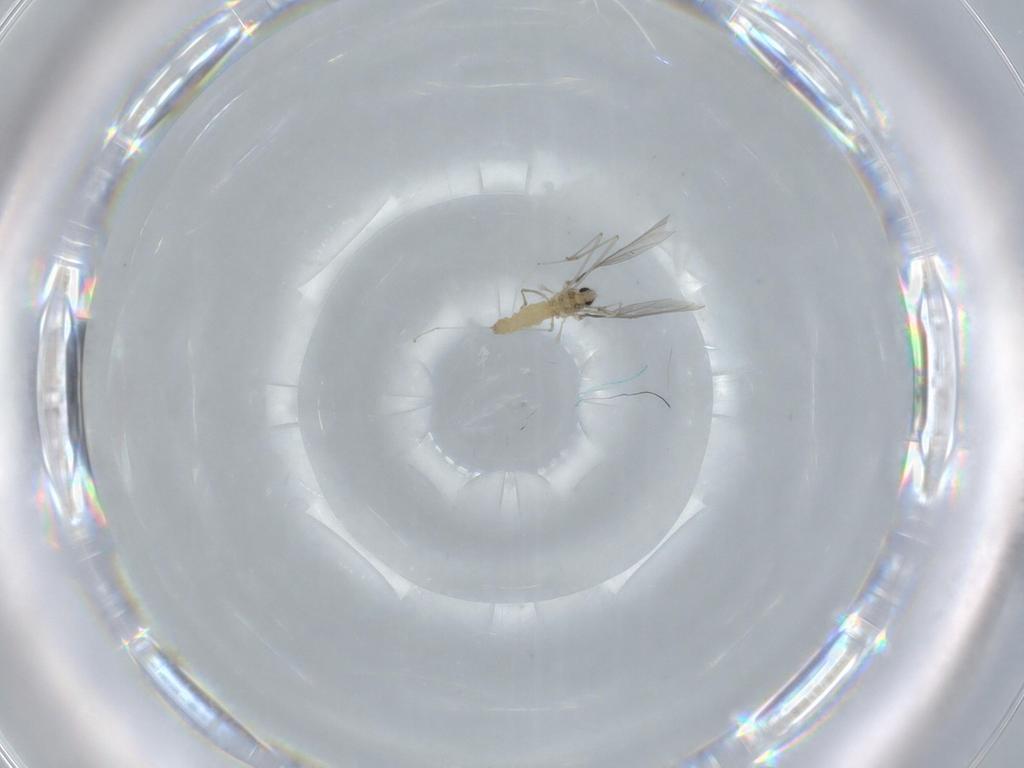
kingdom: Animalia
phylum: Arthropoda
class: Insecta
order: Diptera
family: Cecidomyiidae
